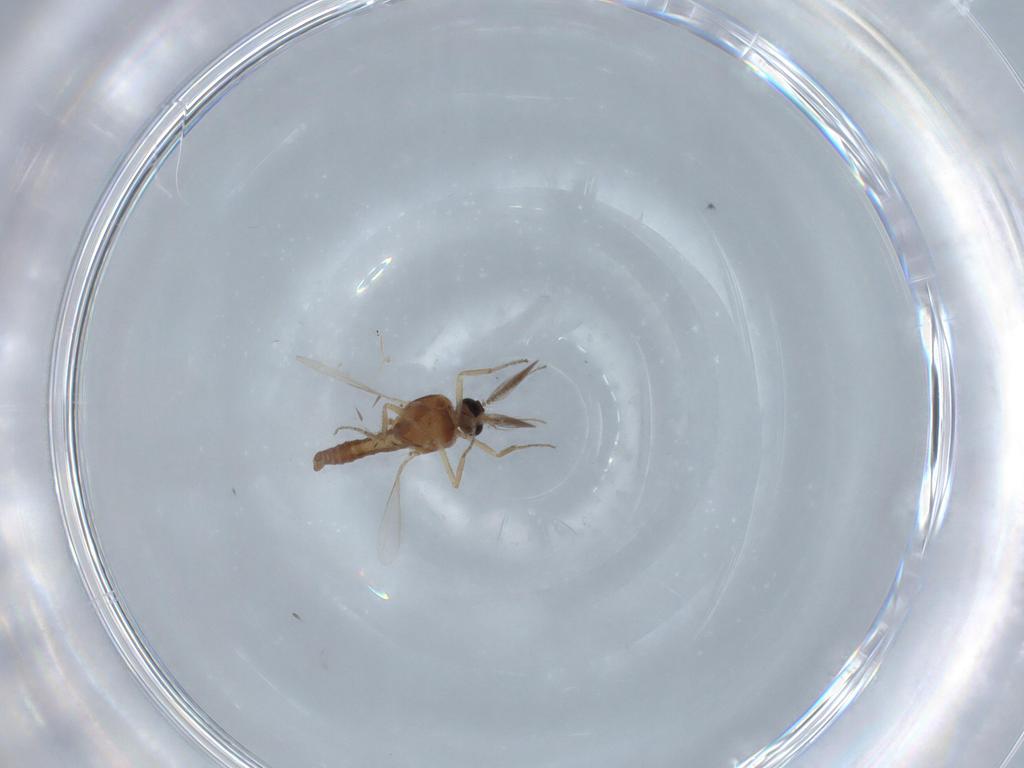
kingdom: Animalia
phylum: Arthropoda
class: Insecta
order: Diptera
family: Ceratopogonidae
